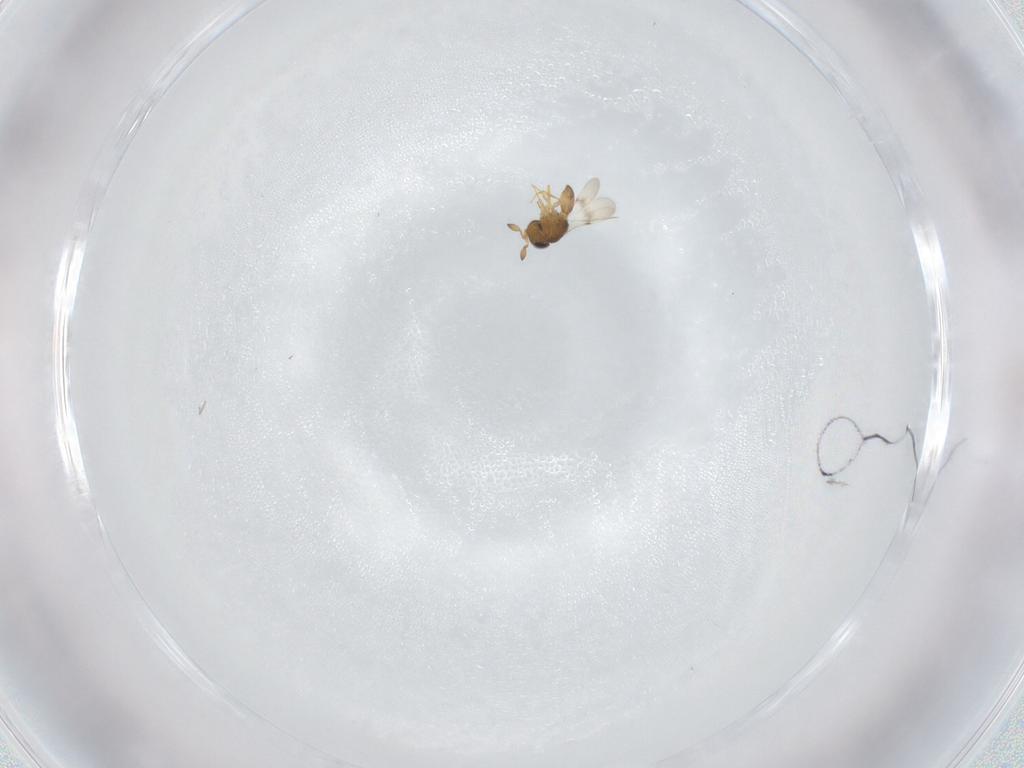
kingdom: Animalia
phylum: Arthropoda
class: Insecta
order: Hymenoptera
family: Scelionidae
